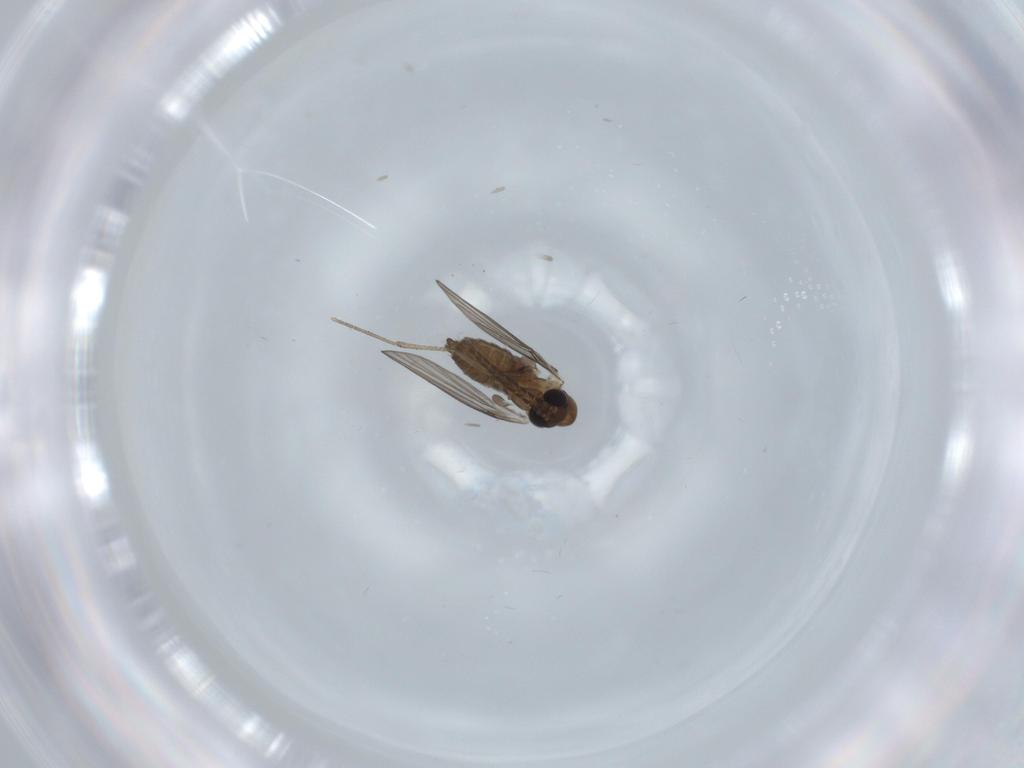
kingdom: Animalia
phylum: Arthropoda
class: Insecta
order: Diptera
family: Psychodidae
